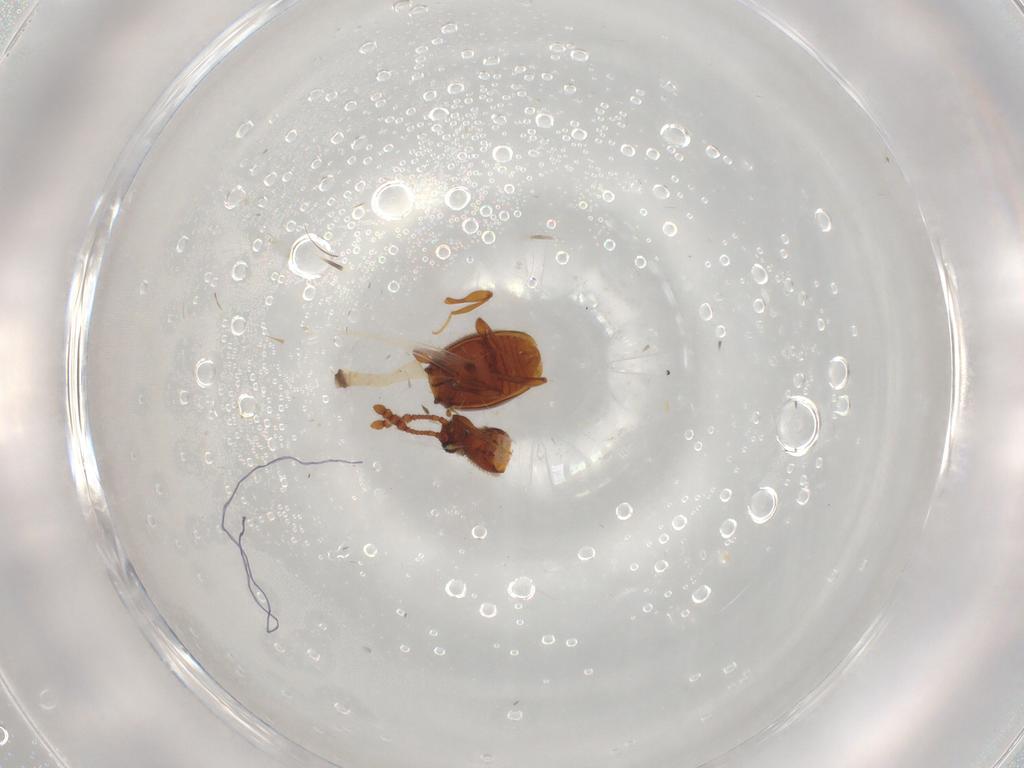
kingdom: Animalia
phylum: Arthropoda
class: Insecta
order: Coleoptera
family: Staphylinidae
